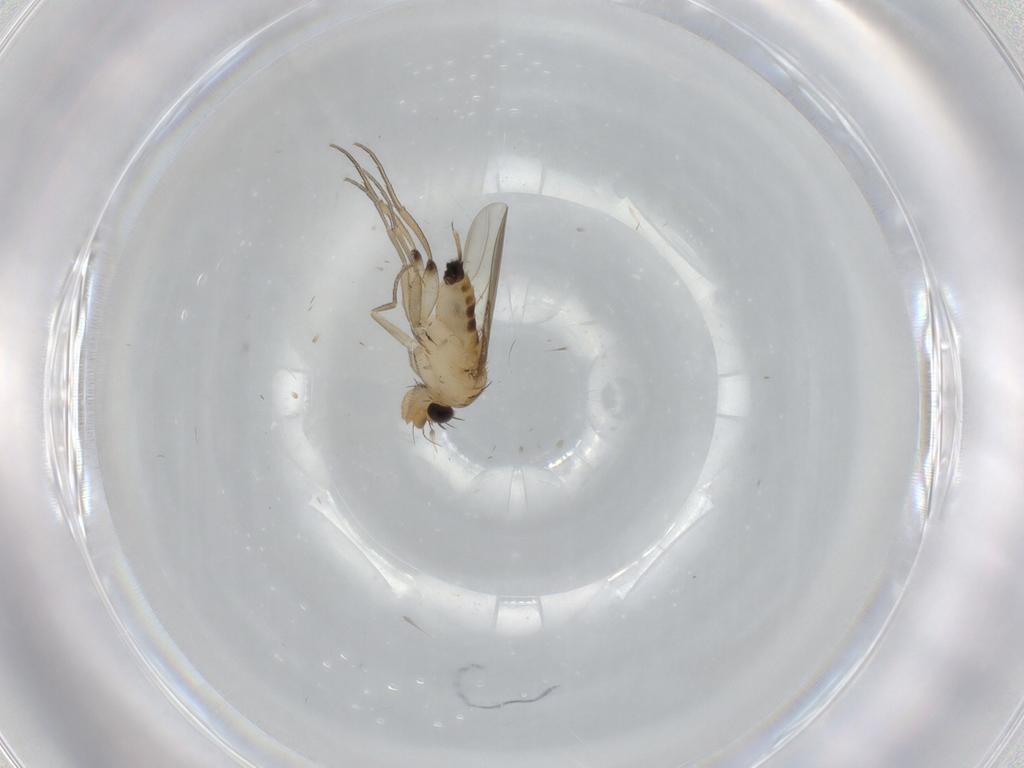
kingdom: Animalia
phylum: Arthropoda
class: Insecta
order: Diptera
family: Phoridae
